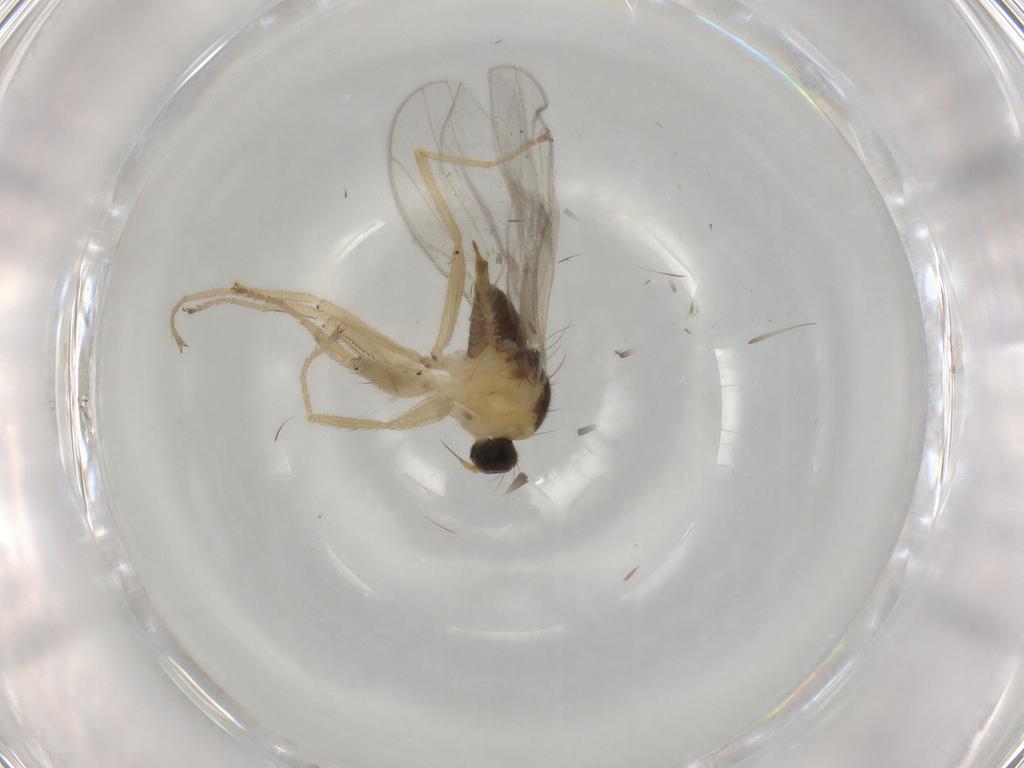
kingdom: Animalia
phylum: Arthropoda
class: Insecta
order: Diptera
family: Hybotidae
